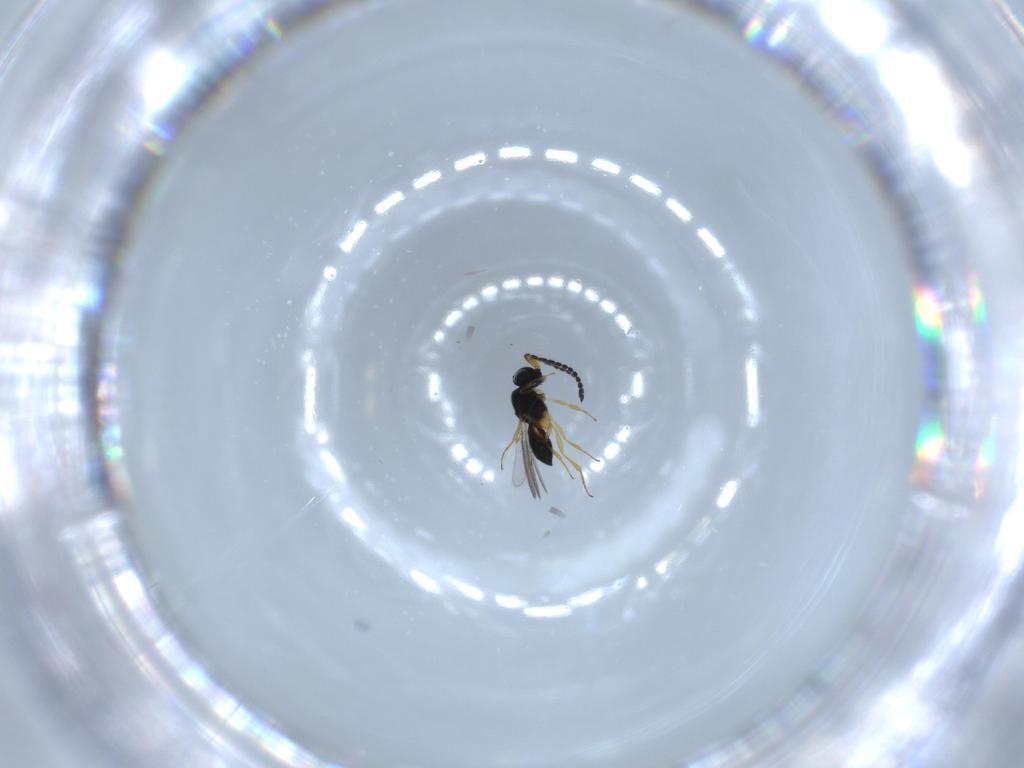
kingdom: Animalia
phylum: Arthropoda
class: Insecta
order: Hymenoptera
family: Scelionidae
